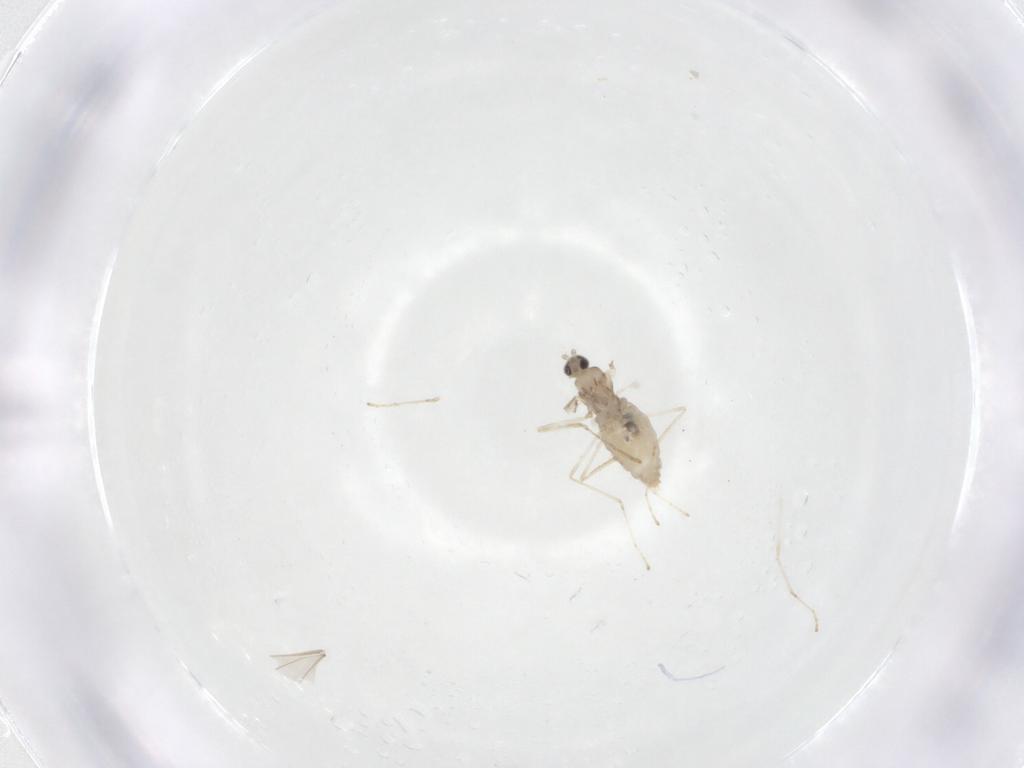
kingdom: Animalia
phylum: Arthropoda
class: Insecta
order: Diptera
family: Cecidomyiidae
